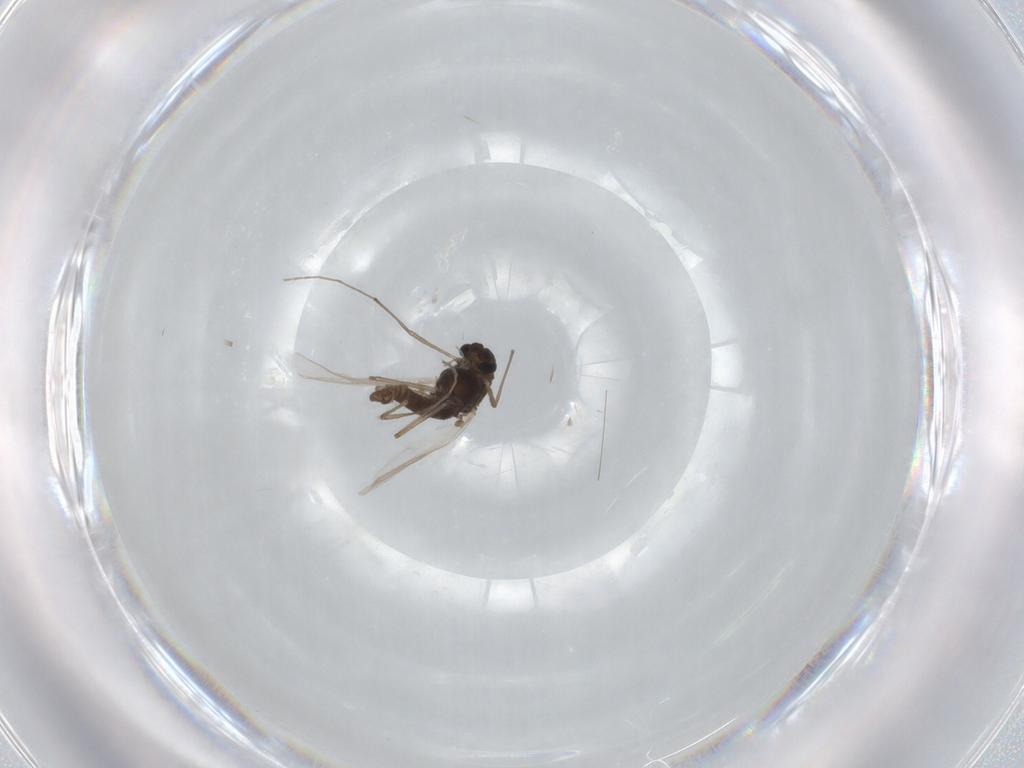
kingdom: Animalia
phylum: Arthropoda
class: Insecta
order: Diptera
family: Chironomidae
